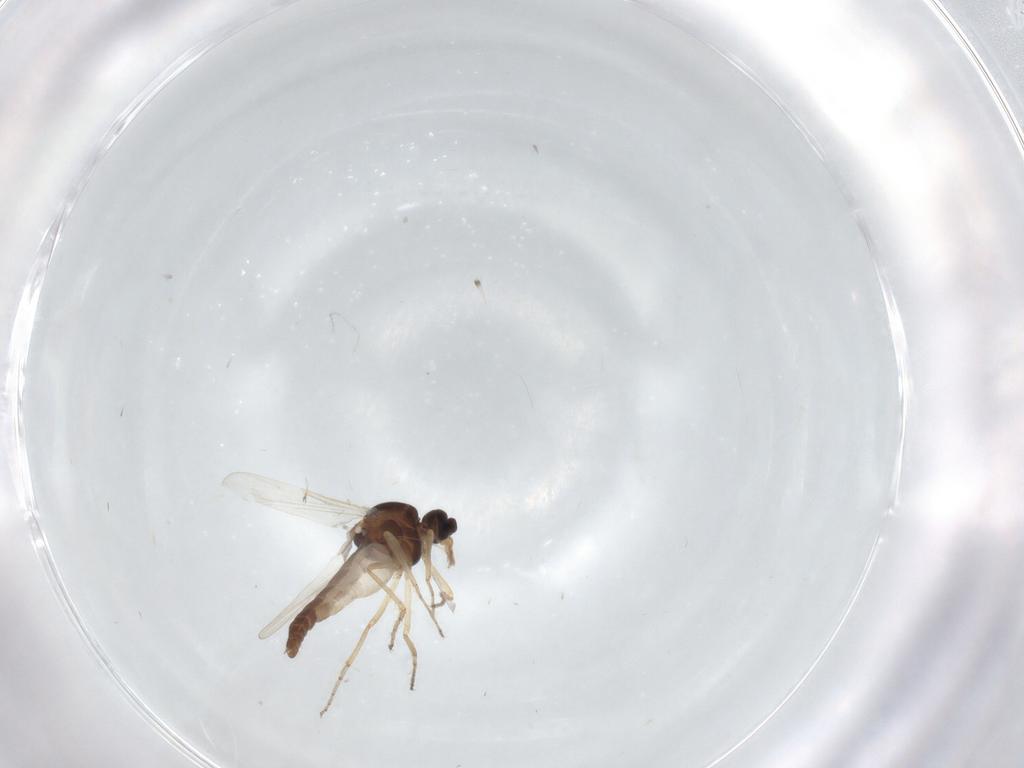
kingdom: Animalia
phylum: Arthropoda
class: Insecta
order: Diptera
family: Ceratopogonidae
